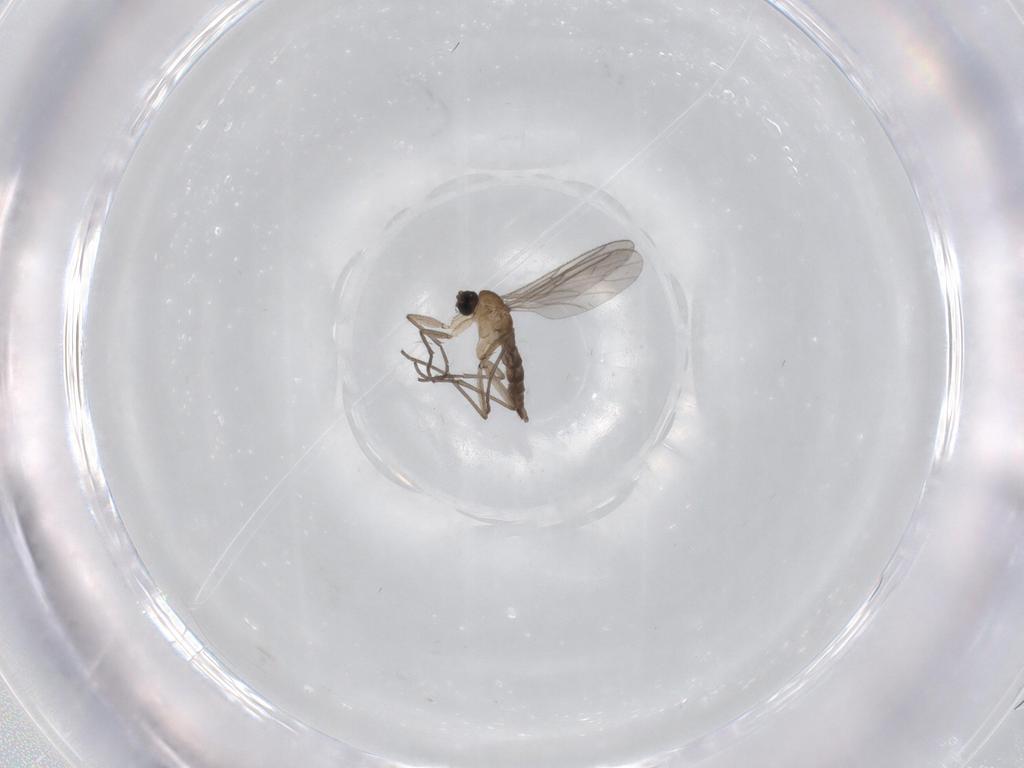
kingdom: Animalia
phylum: Arthropoda
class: Insecta
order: Diptera
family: Sciaridae
